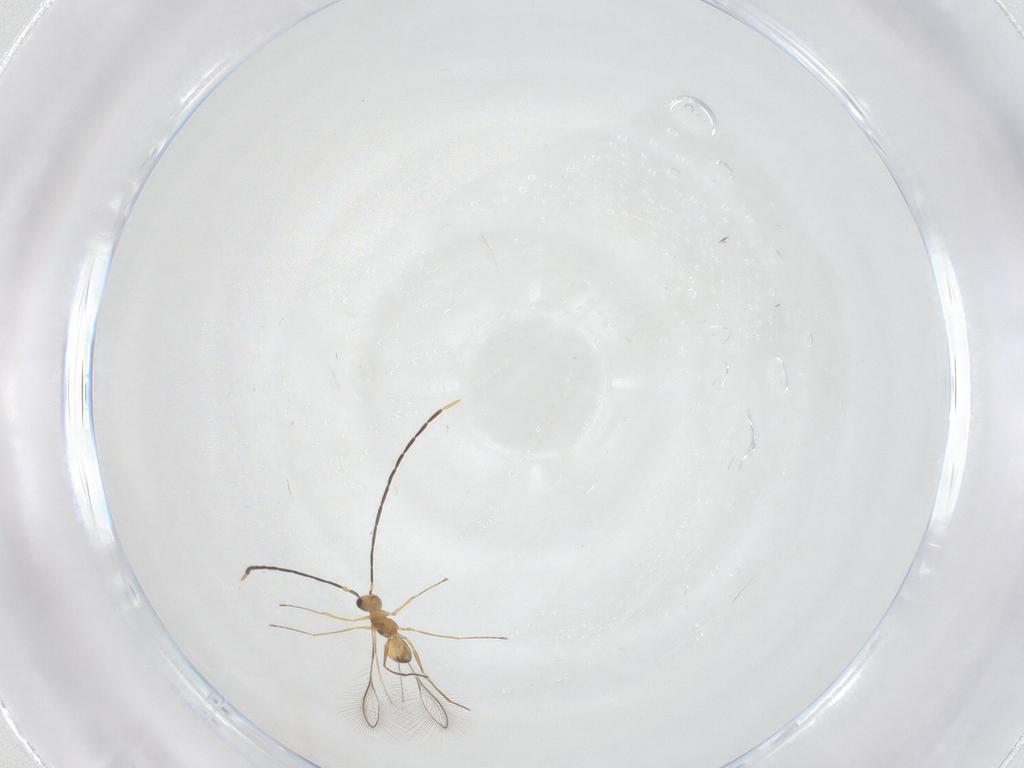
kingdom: Animalia
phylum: Arthropoda
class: Insecta
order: Hymenoptera
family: Mymaridae
